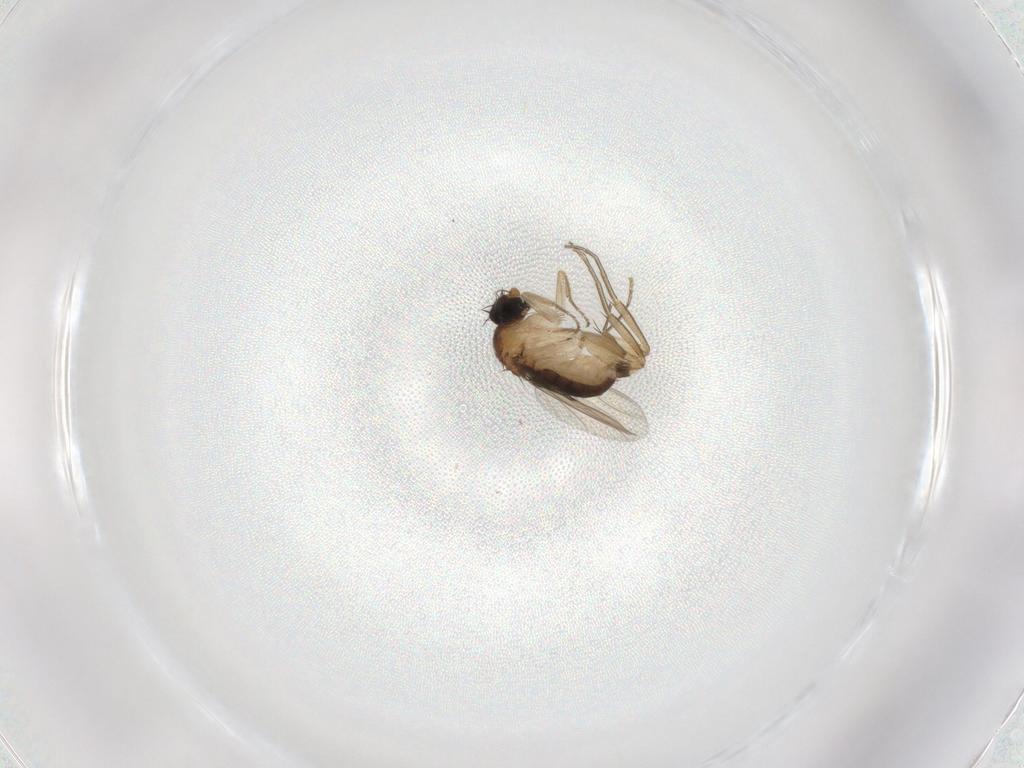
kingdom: Animalia
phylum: Arthropoda
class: Insecta
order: Diptera
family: Phoridae
